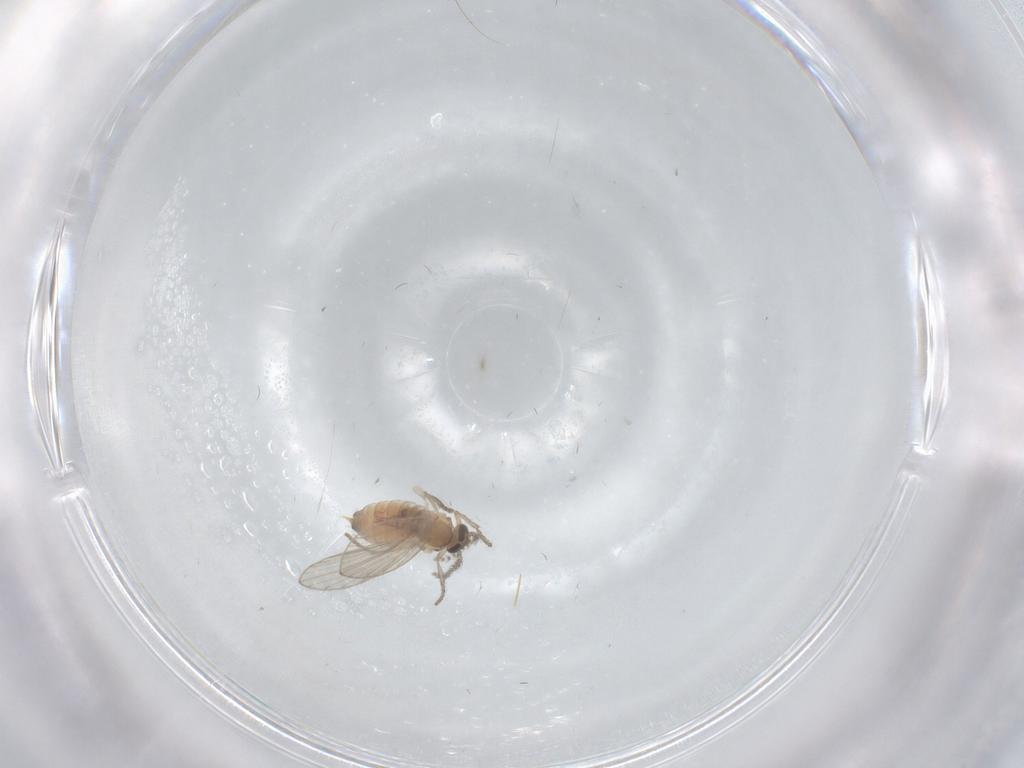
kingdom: Animalia
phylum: Arthropoda
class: Insecta
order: Diptera
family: Psychodidae
